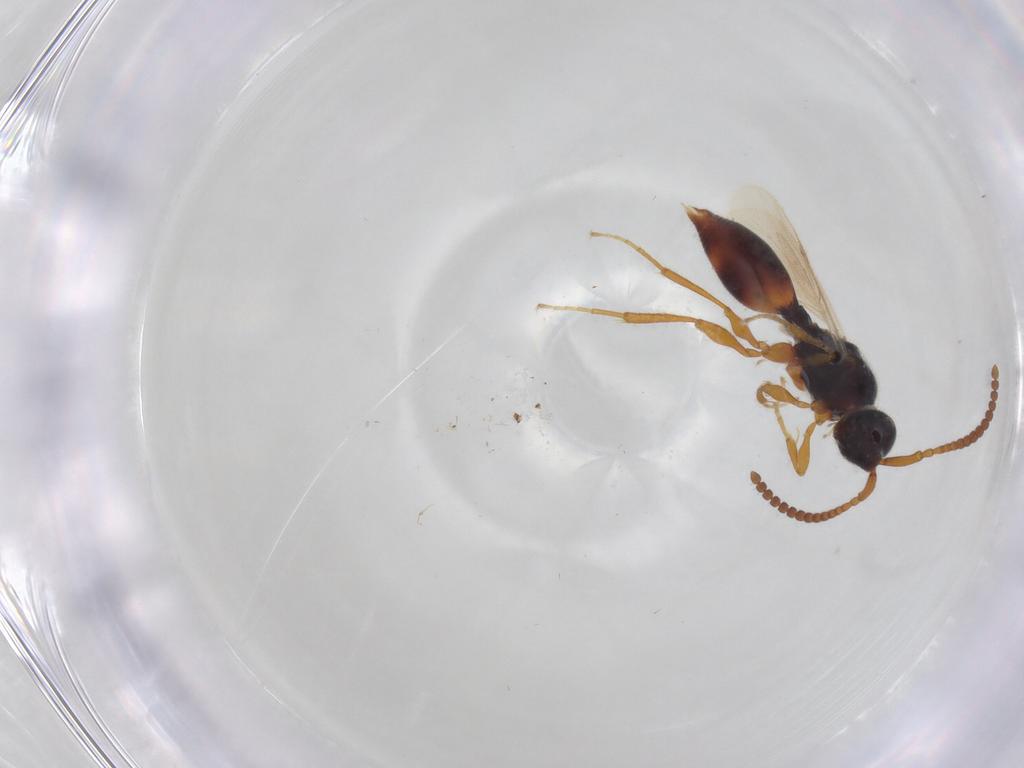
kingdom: Animalia
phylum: Arthropoda
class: Insecta
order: Hymenoptera
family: Diapriidae
